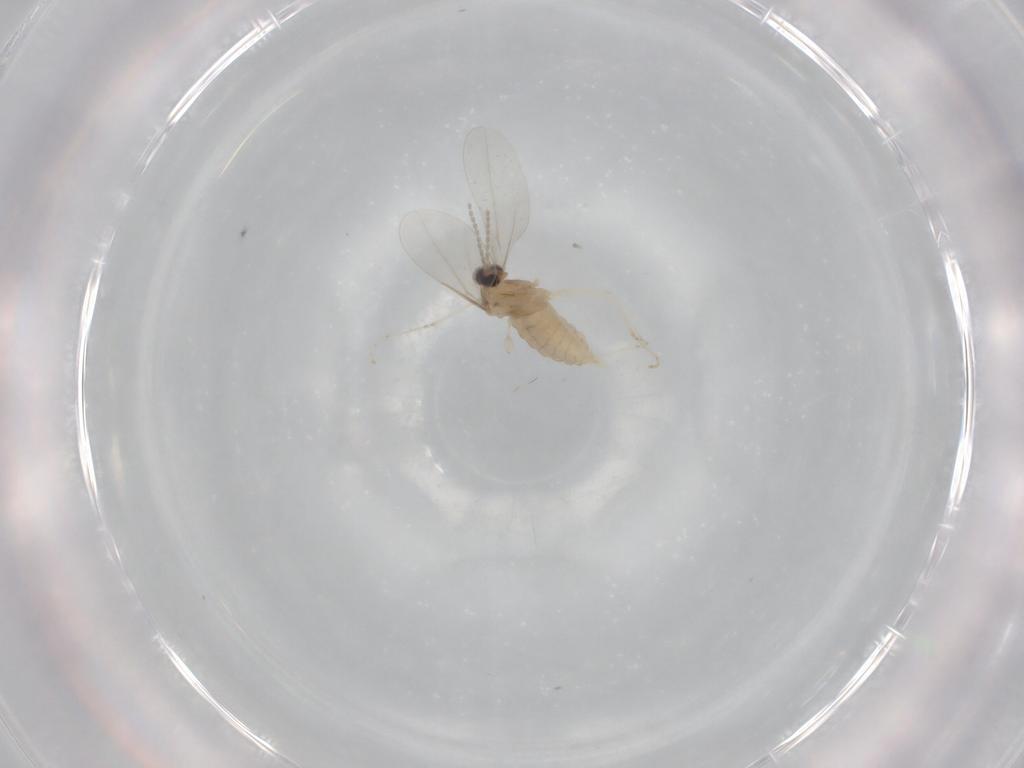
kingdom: Animalia
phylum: Arthropoda
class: Insecta
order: Diptera
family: Cecidomyiidae
